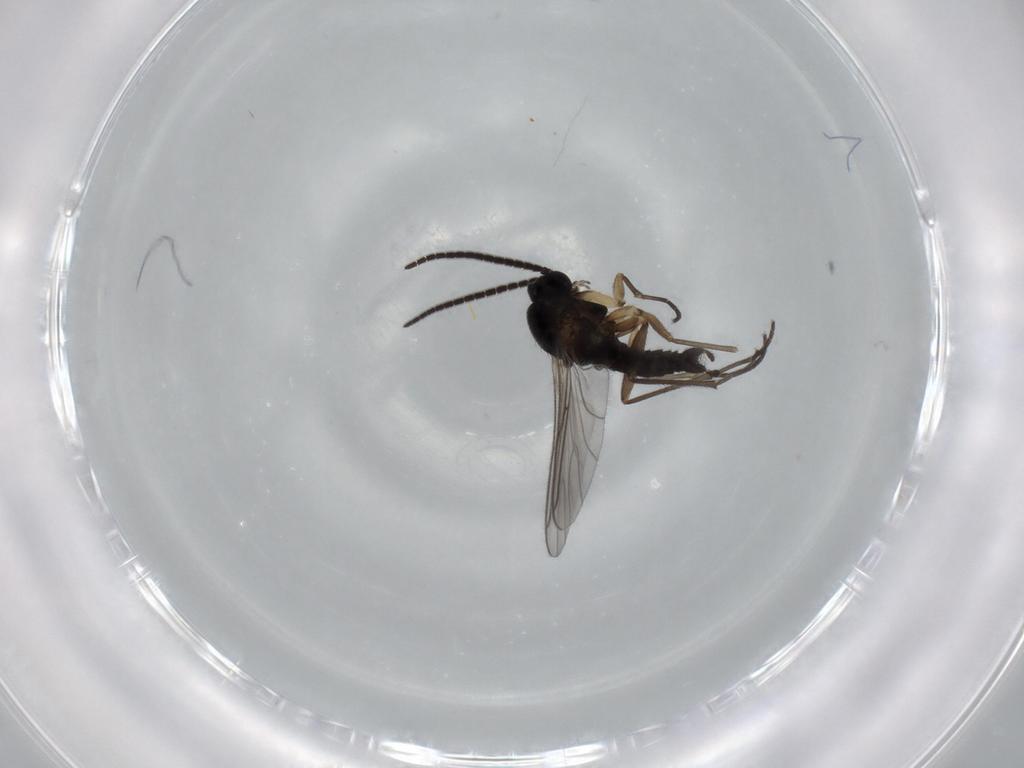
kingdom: Animalia
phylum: Arthropoda
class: Insecta
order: Diptera
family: Sciaridae
